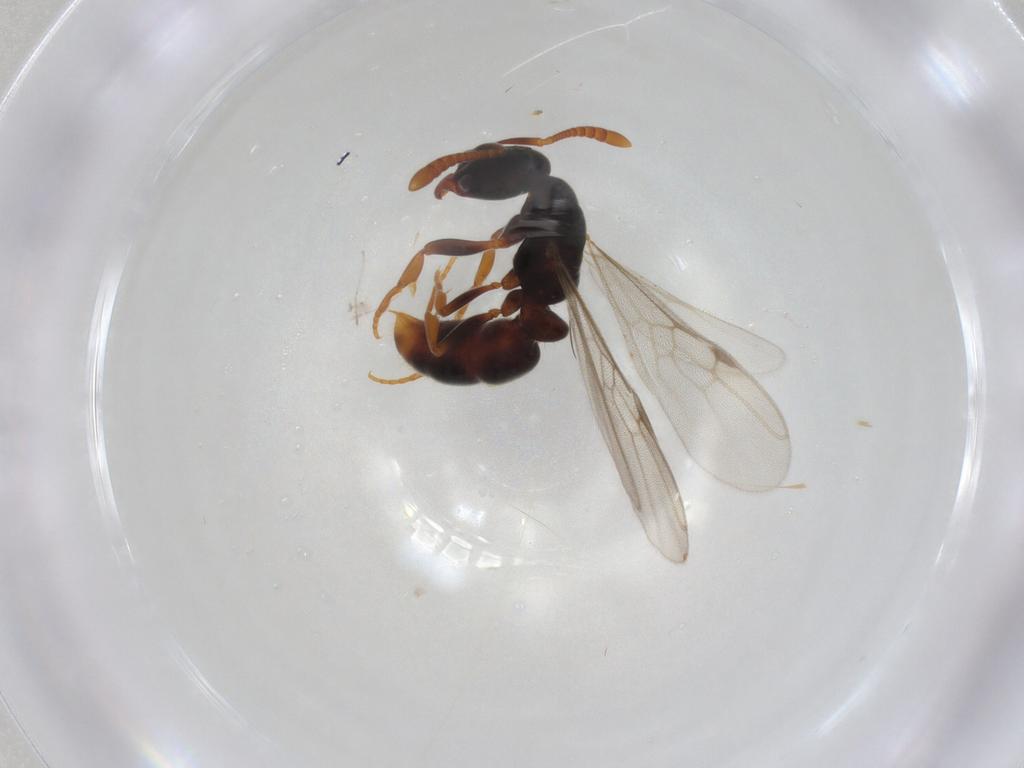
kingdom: Animalia
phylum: Arthropoda
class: Insecta
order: Hymenoptera
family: Formicidae
